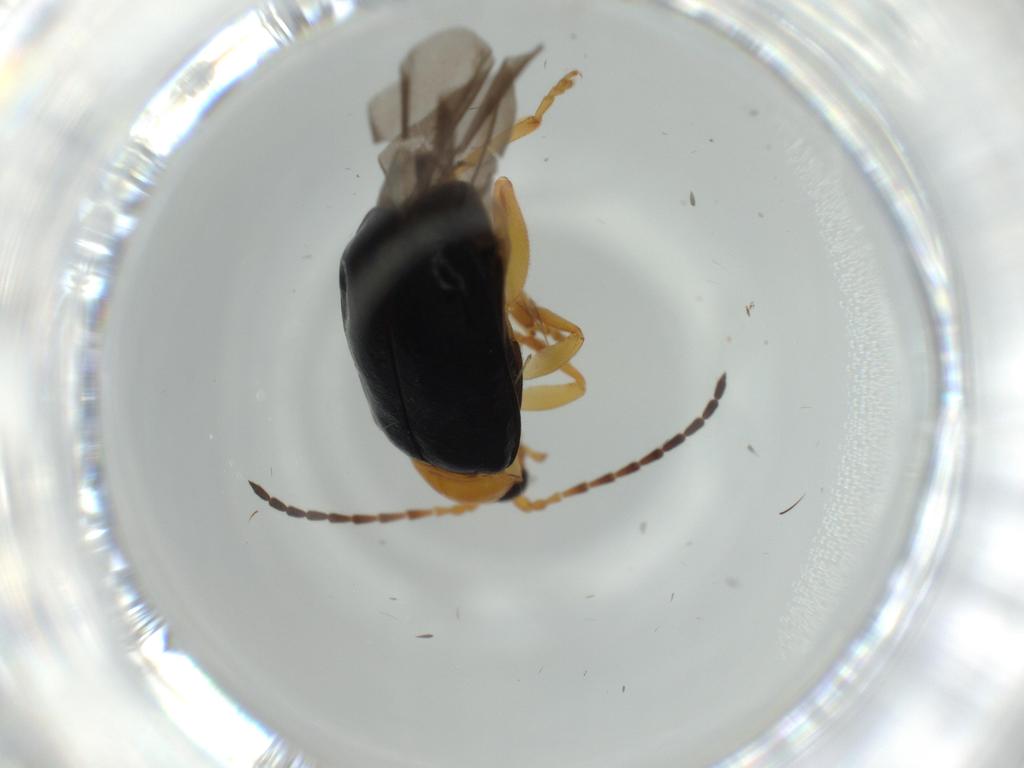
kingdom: Animalia
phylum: Arthropoda
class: Insecta
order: Coleoptera
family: Chrysomelidae
